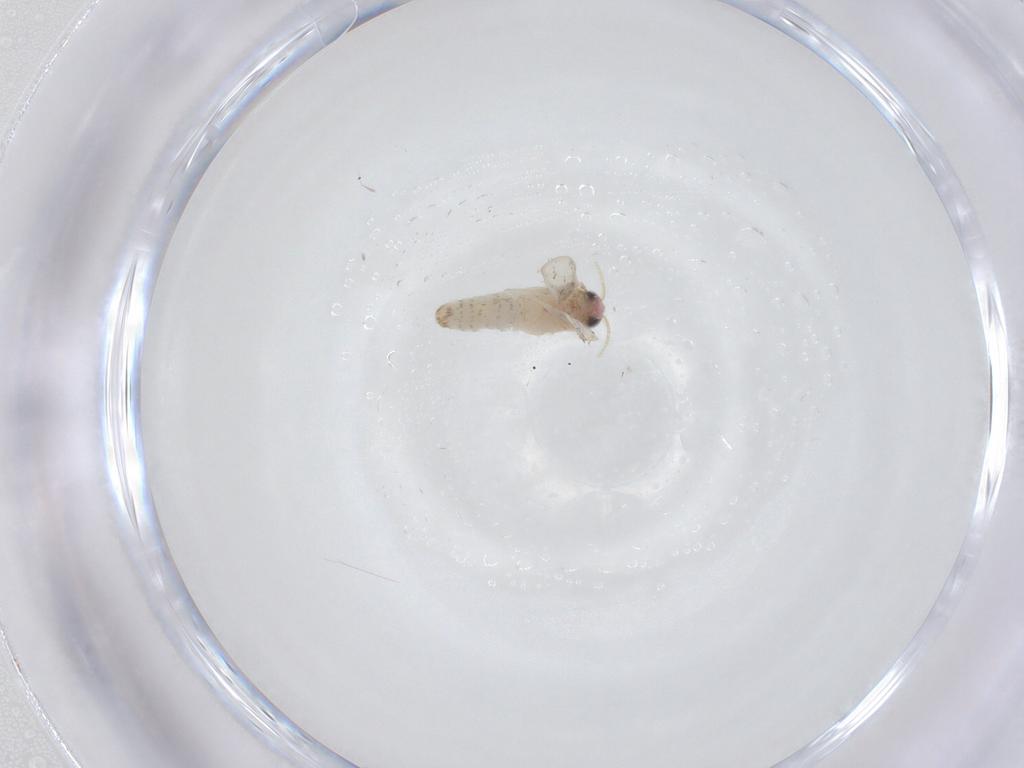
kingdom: Animalia
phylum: Arthropoda
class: Insecta
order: Lepidoptera
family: Nepticulidae
